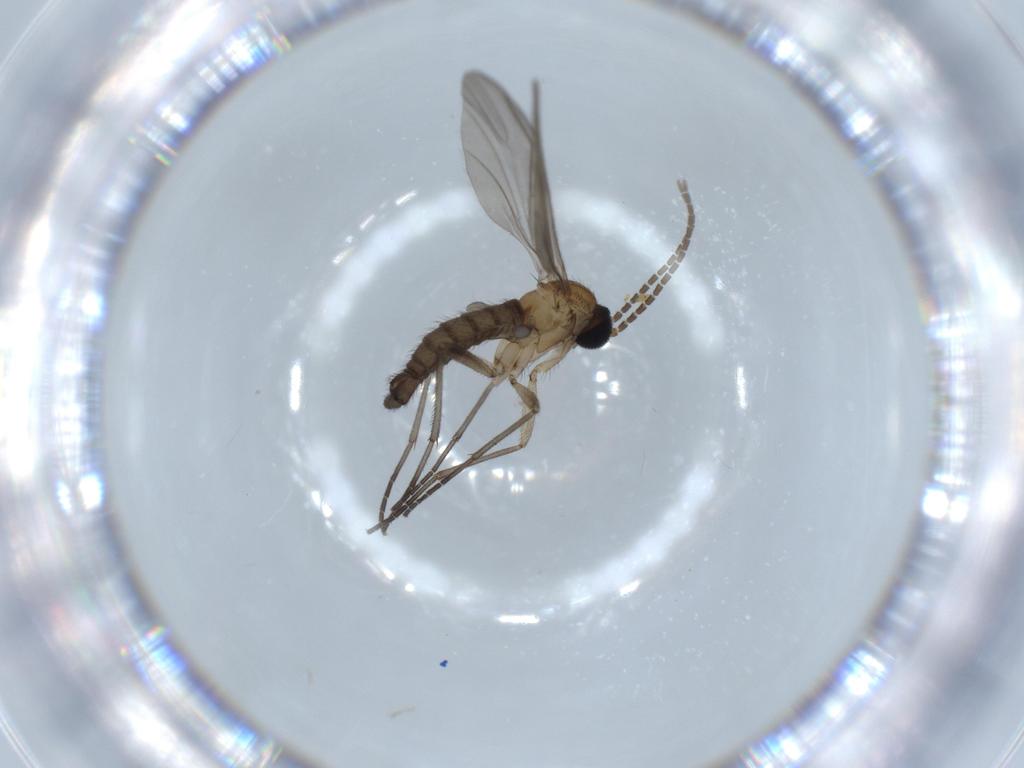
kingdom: Animalia
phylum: Arthropoda
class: Insecta
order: Diptera
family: Sciaridae
